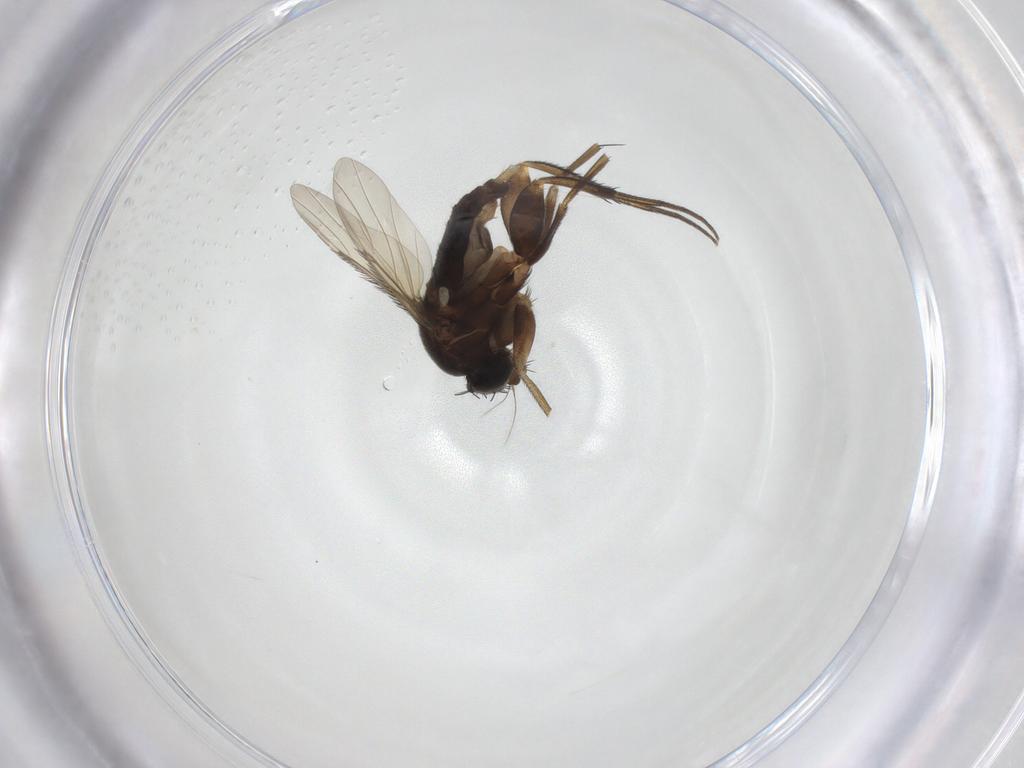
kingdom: Animalia
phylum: Arthropoda
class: Insecta
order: Diptera
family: Phoridae
